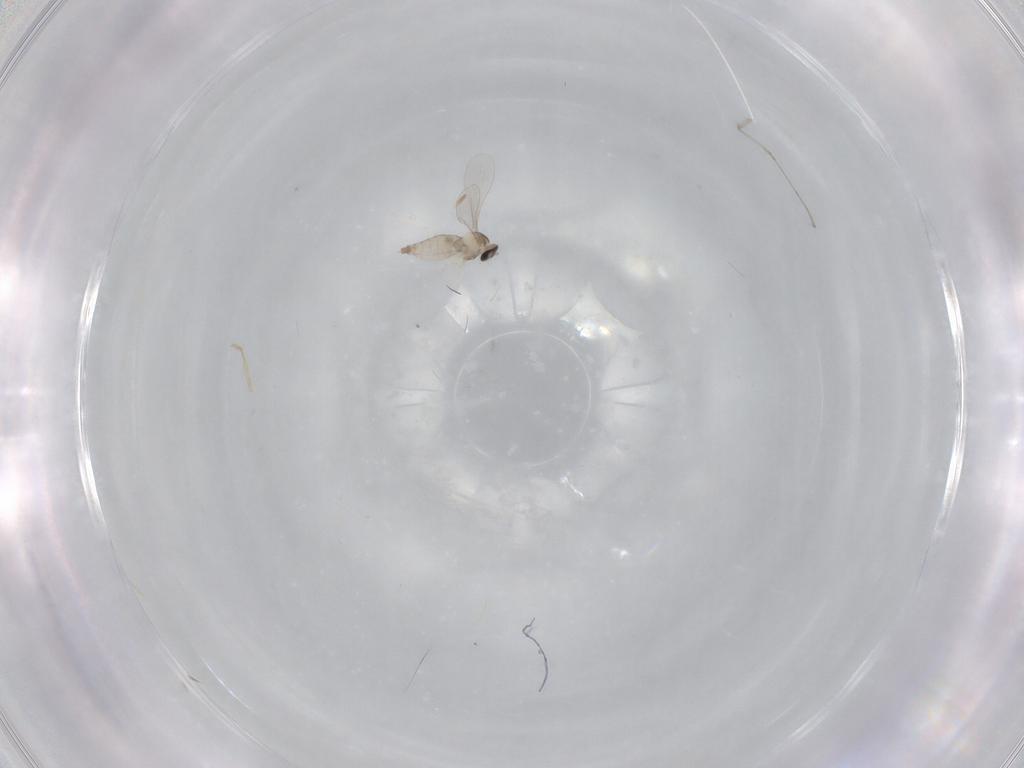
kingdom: Animalia
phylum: Arthropoda
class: Insecta
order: Diptera
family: Cecidomyiidae
